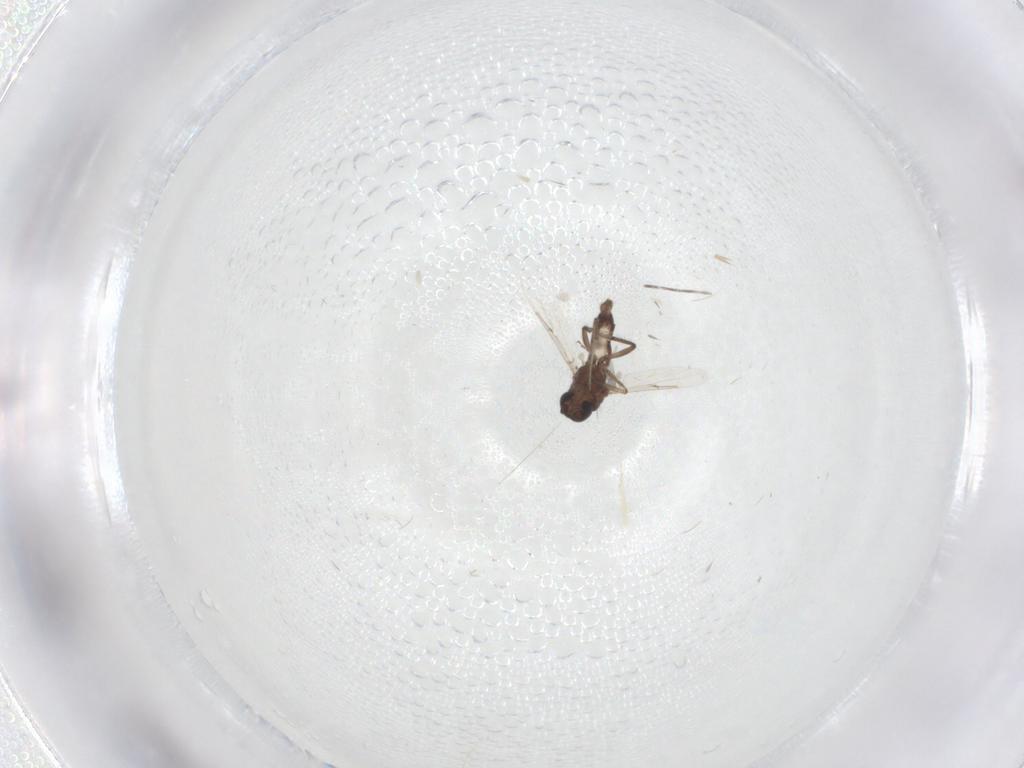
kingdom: Animalia
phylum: Arthropoda
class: Insecta
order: Diptera
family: Ceratopogonidae
